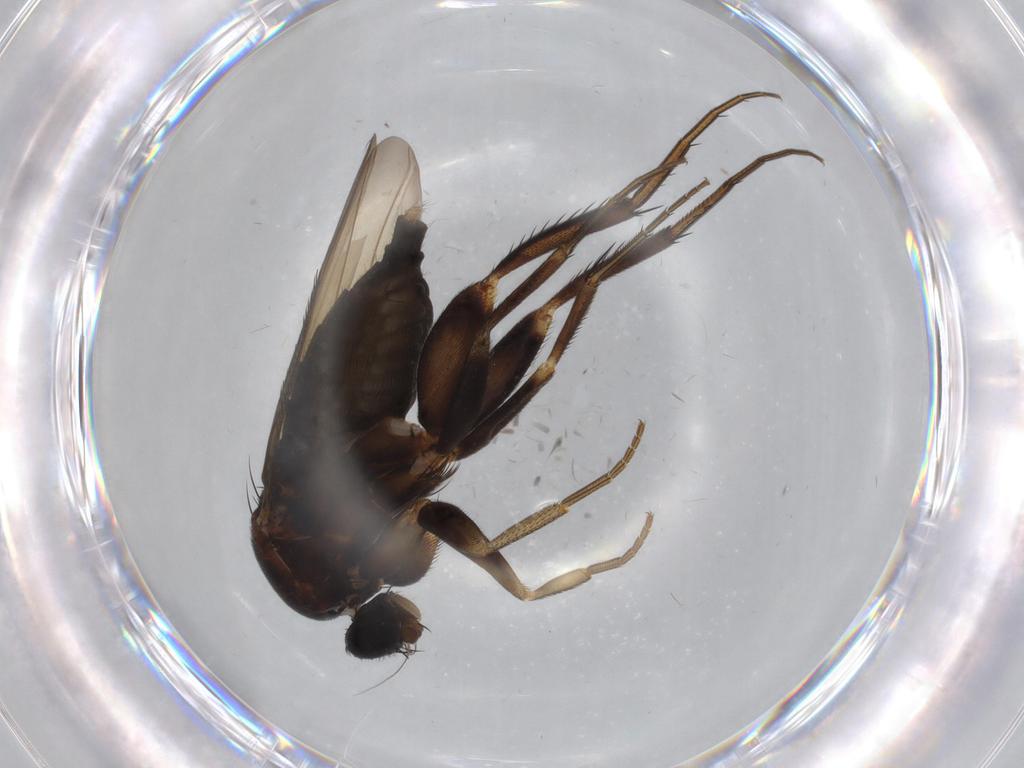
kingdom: Animalia
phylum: Arthropoda
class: Insecta
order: Diptera
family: Phoridae
